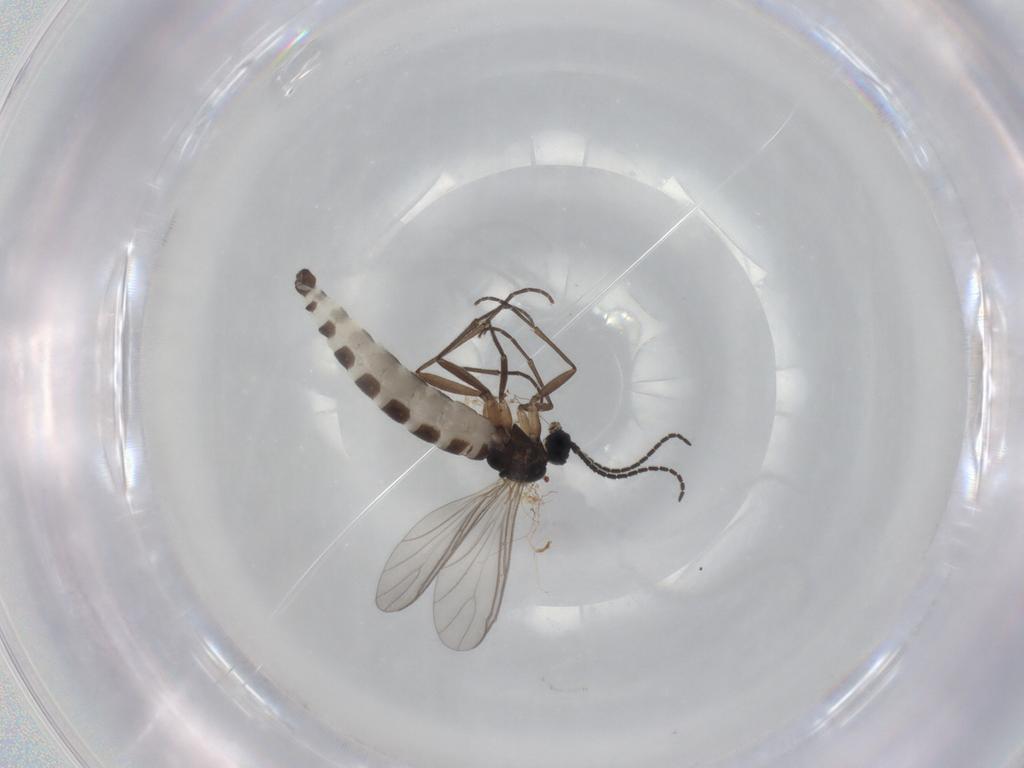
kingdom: Animalia
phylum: Arthropoda
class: Insecta
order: Diptera
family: Sciaridae
